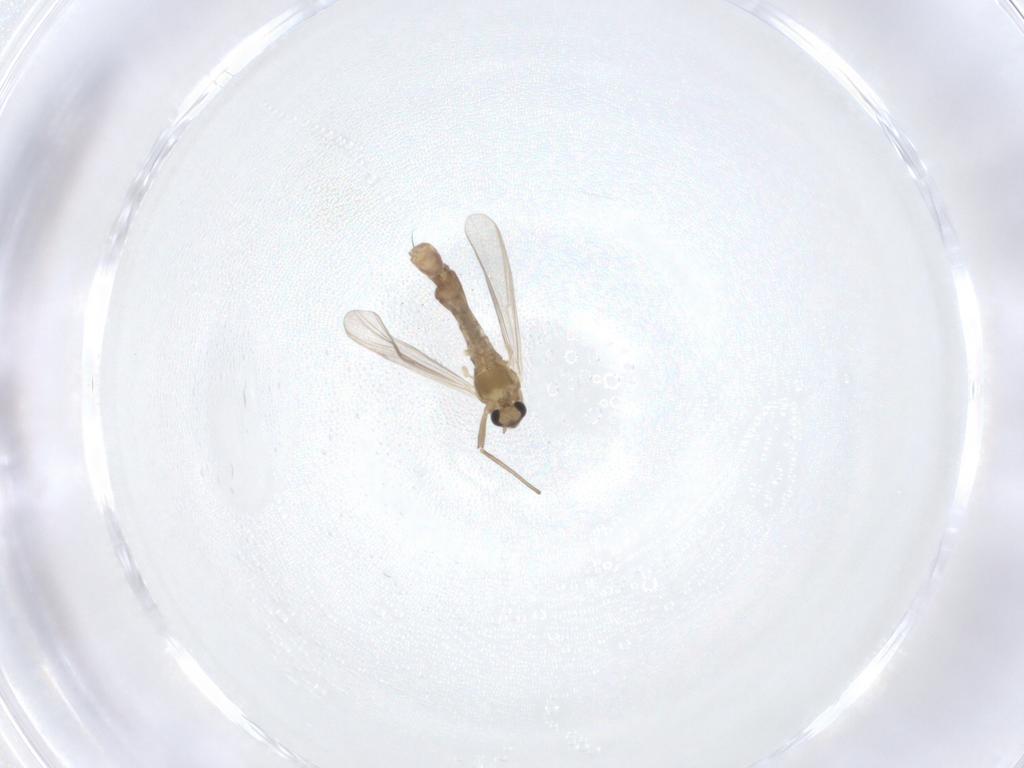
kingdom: Animalia
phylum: Arthropoda
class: Insecta
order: Diptera
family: Chironomidae
